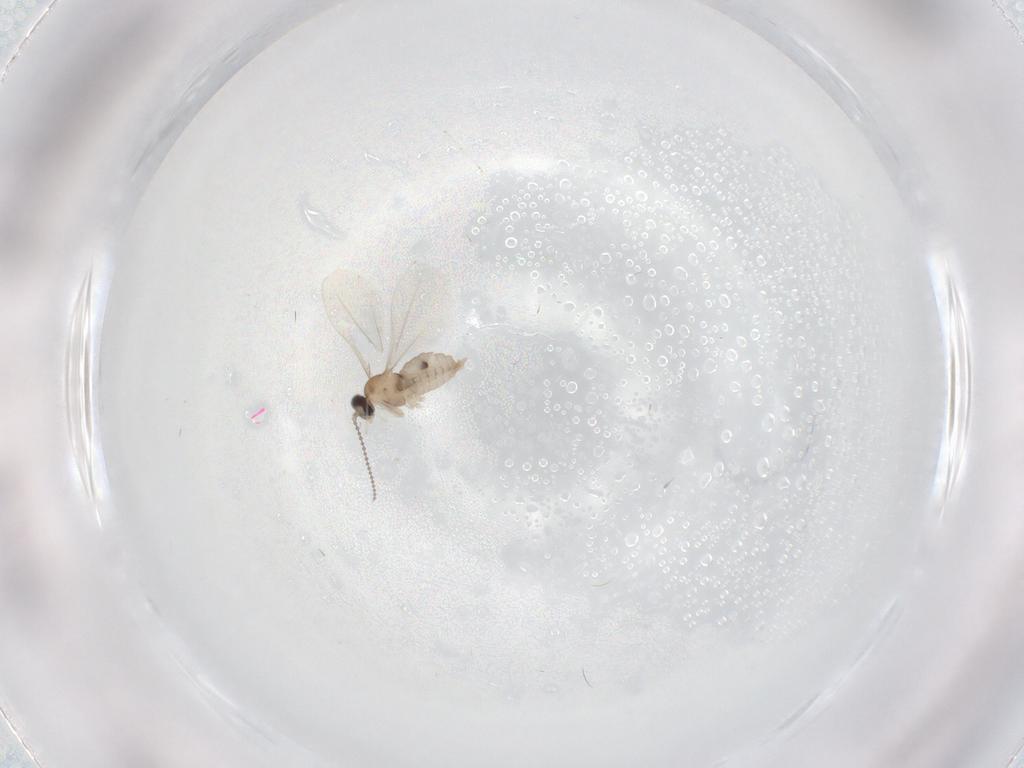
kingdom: Animalia
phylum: Arthropoda
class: Insecta
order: Diptera
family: Cecidomyiidae
